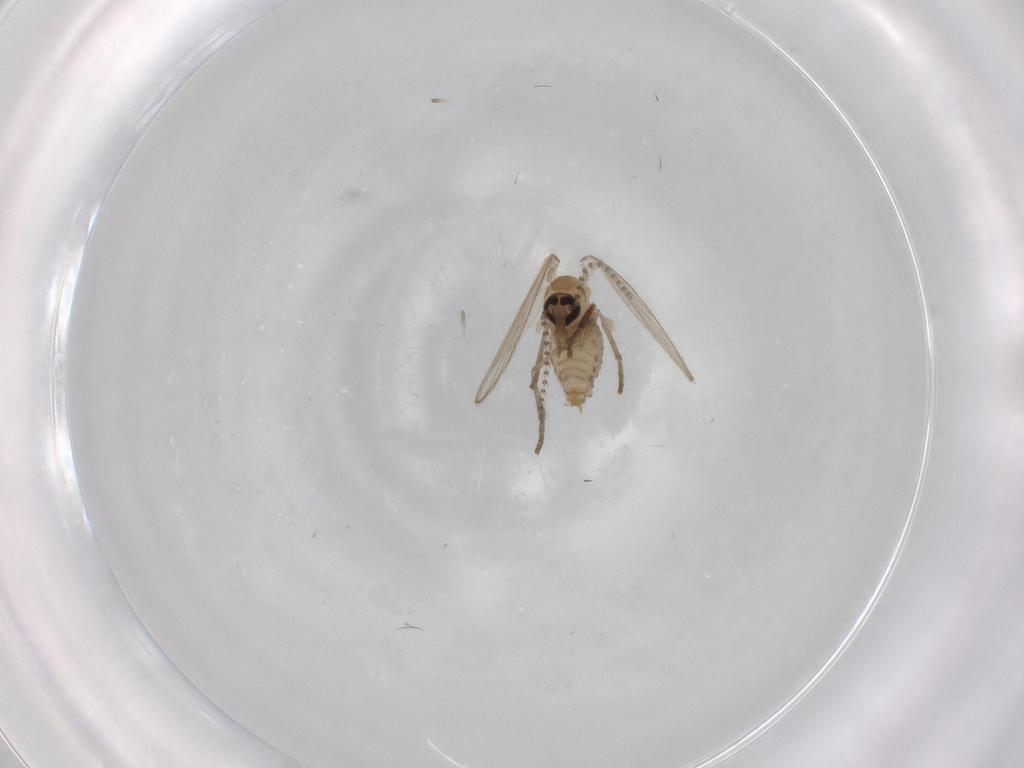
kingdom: Animalia
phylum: Arthropoda
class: Insecta
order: Diptera
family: Psychodidae
